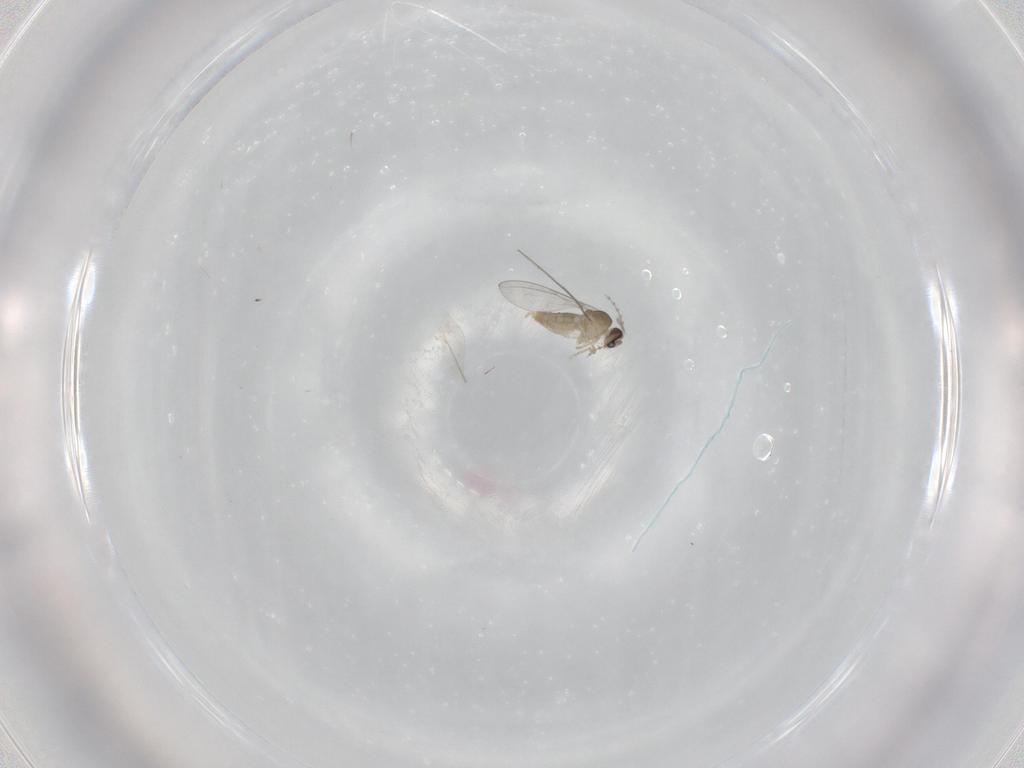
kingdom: Animalia
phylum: Arthropoda
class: Insecta
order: Diptera
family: Cecidomyiidae
